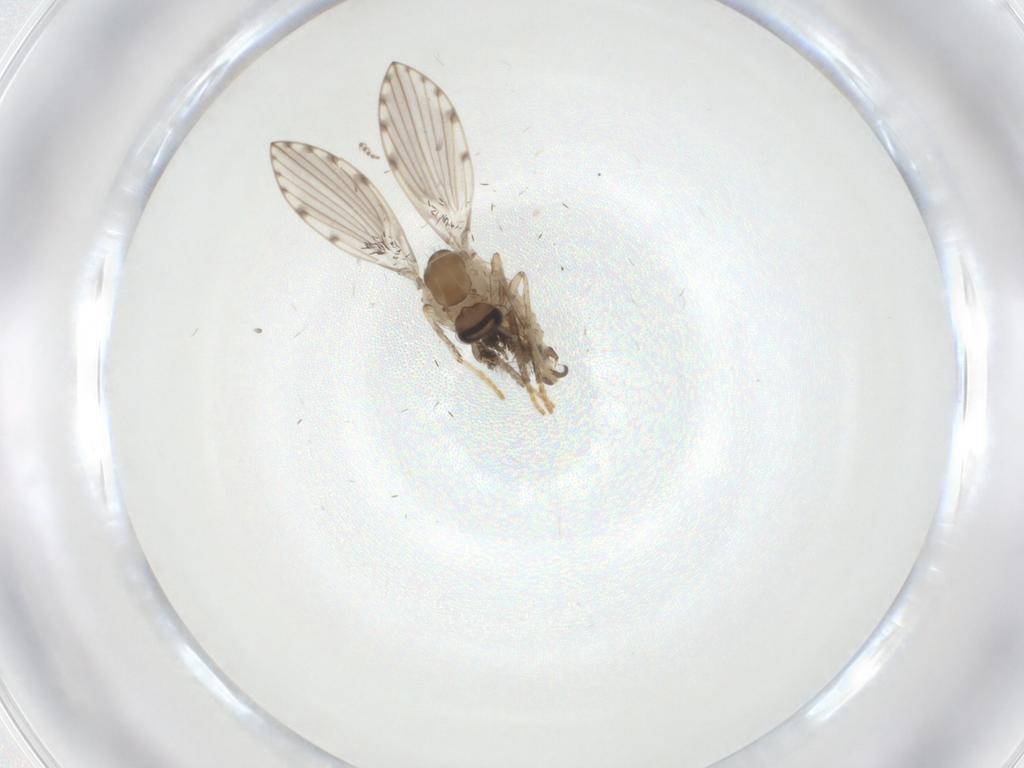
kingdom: Animalia
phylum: Arthropoda
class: Insecta
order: Diptera
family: Psychodidae
